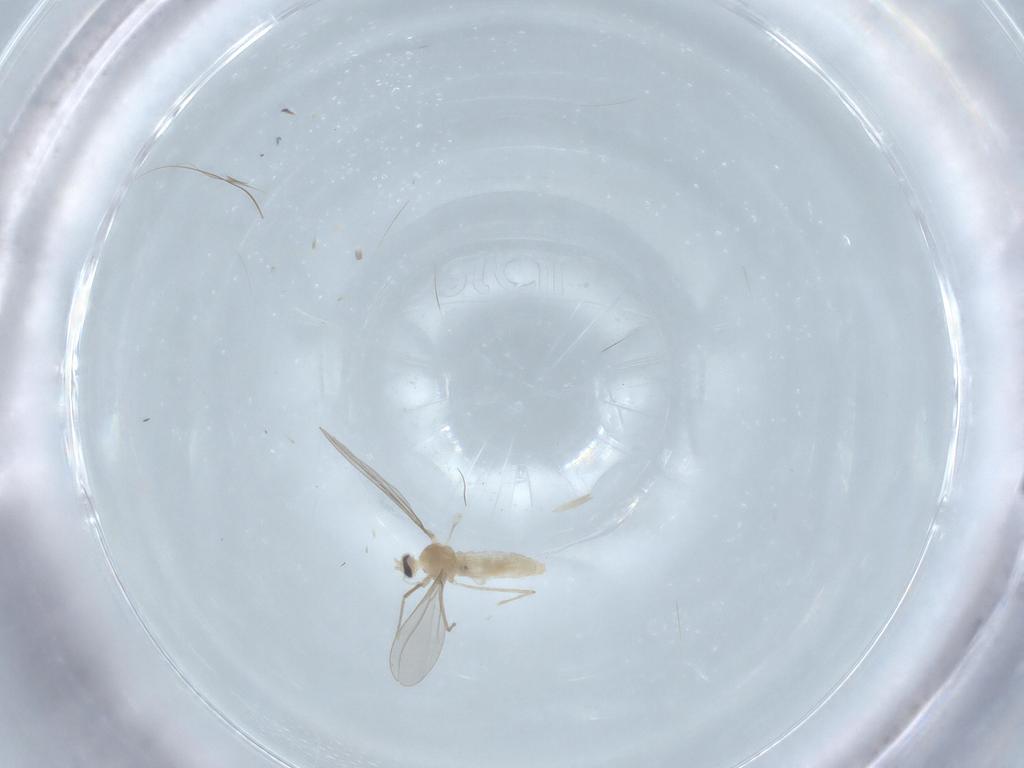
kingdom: Animalia
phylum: Arthropoda
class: Insecta
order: Diptera
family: Cecidomyiidae
